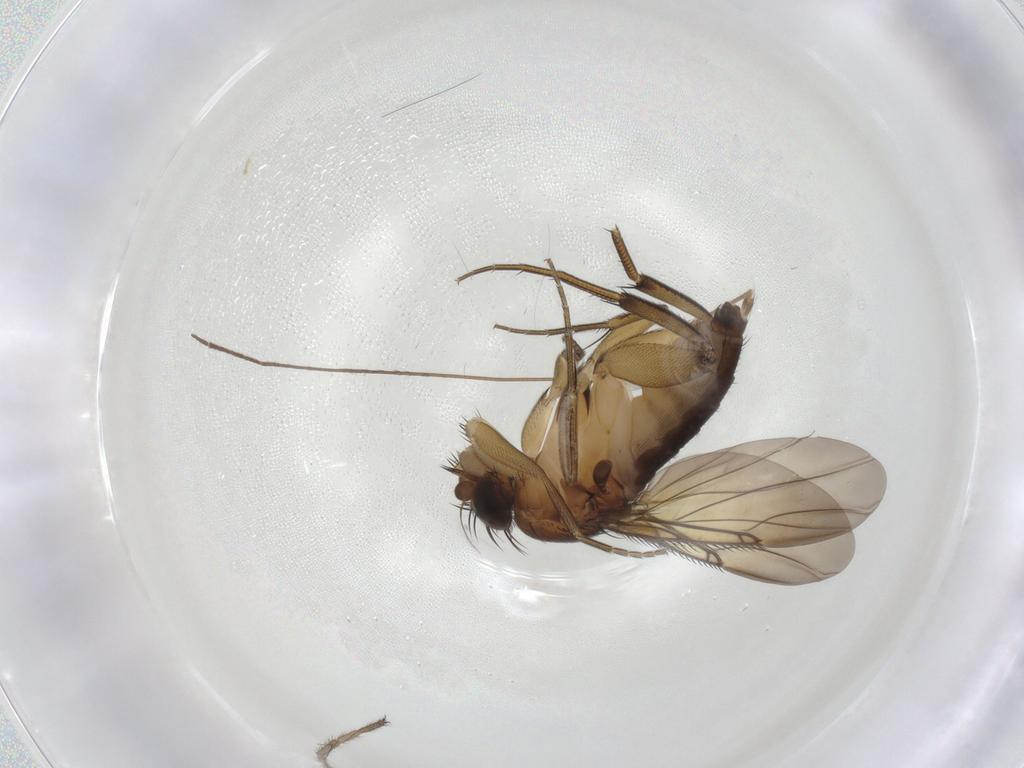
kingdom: Animalia
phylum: Arthropoda
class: Insecta
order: Diptera
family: Phoridae
